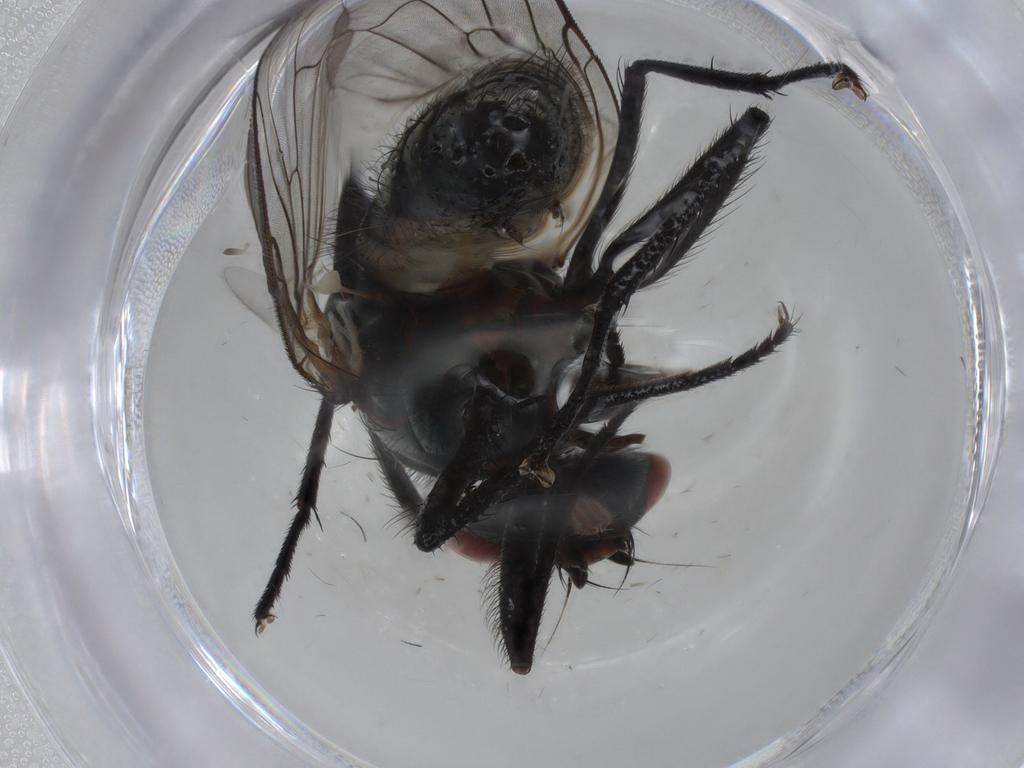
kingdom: Animalia
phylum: Arthropoda
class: Insecta
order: Diptera
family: Anthomyiidae
